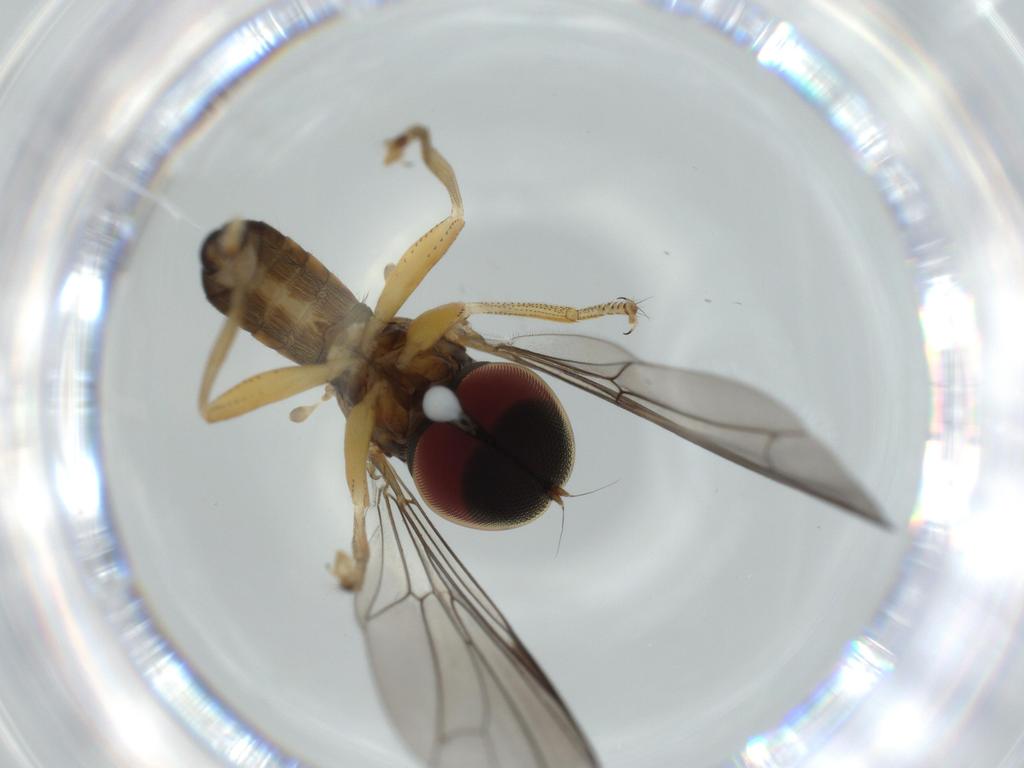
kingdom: Animalia
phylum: Arthropoda
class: Insecta
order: Diptera
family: Pipunculidae
